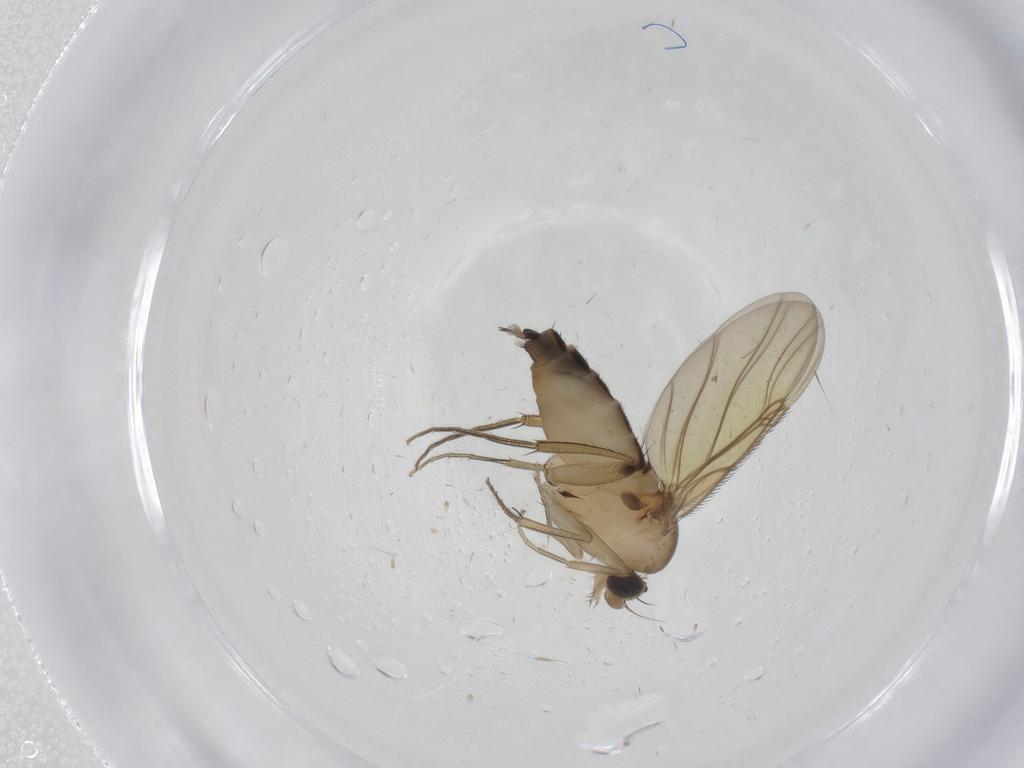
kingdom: Animalia
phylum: Arthropoda
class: Insecta
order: Diptera
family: Phoridae
